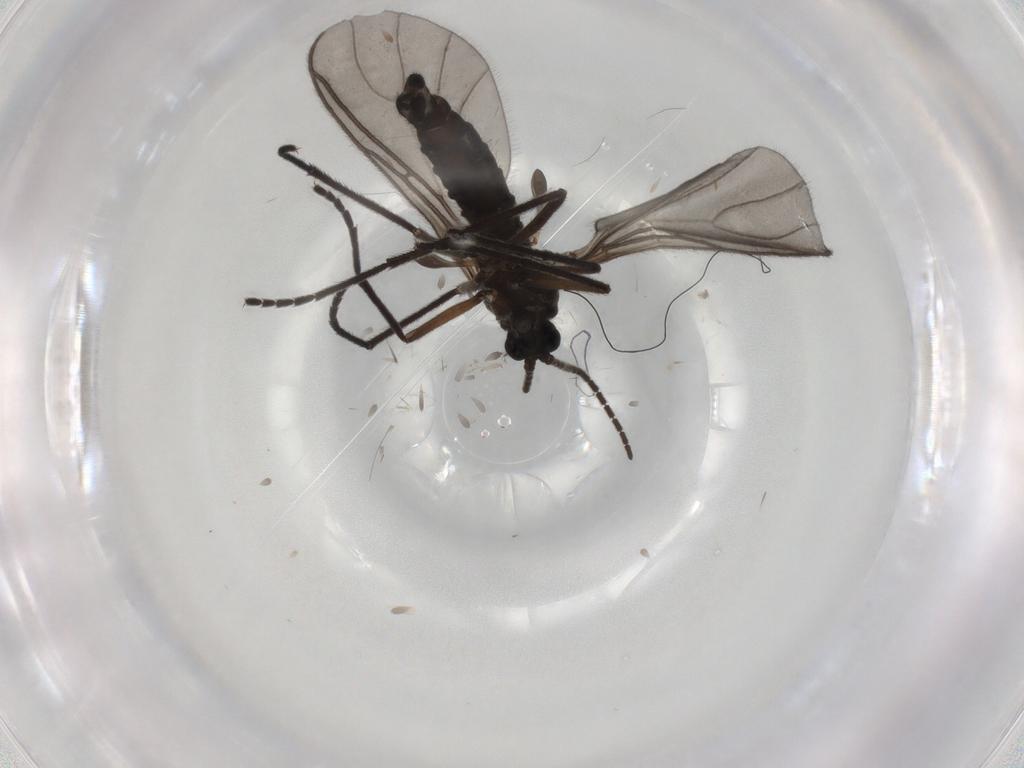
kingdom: Animalia
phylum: Arthropoda
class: Insecta
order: Diptera
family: Sciaridae
